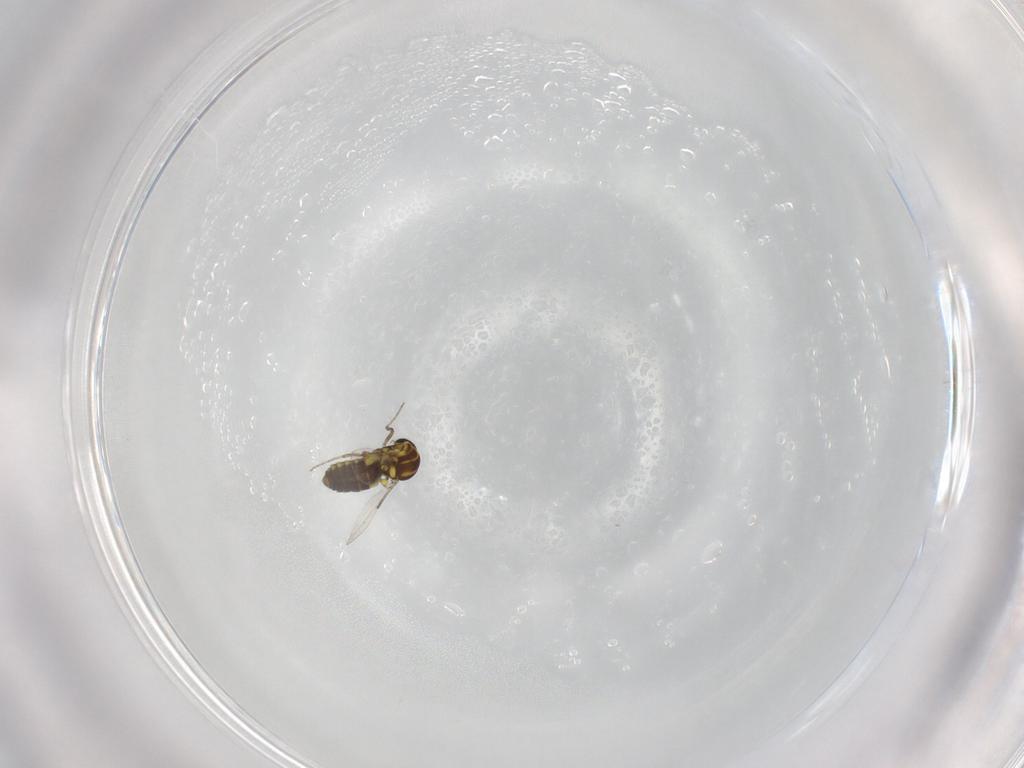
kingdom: Animalia
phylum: Arthropoda
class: Insecta
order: Diptera
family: Ceratopogonidae
